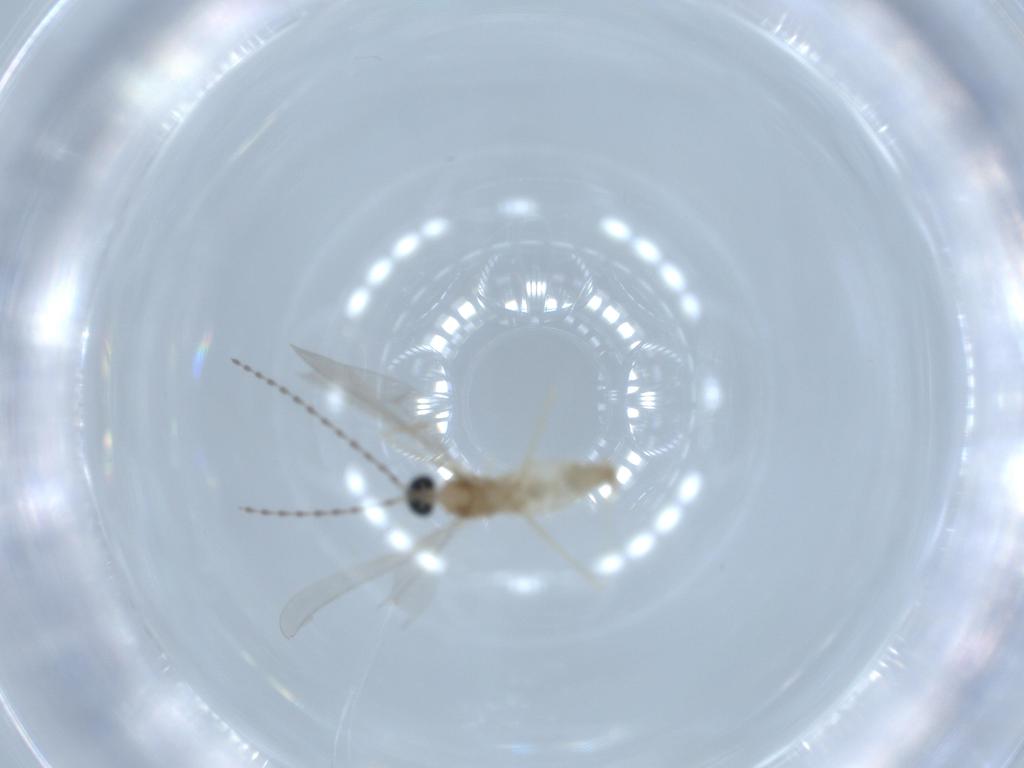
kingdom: Animalia
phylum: Arthropoda
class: Insecta
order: Diptera
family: Cecidomyiidae
